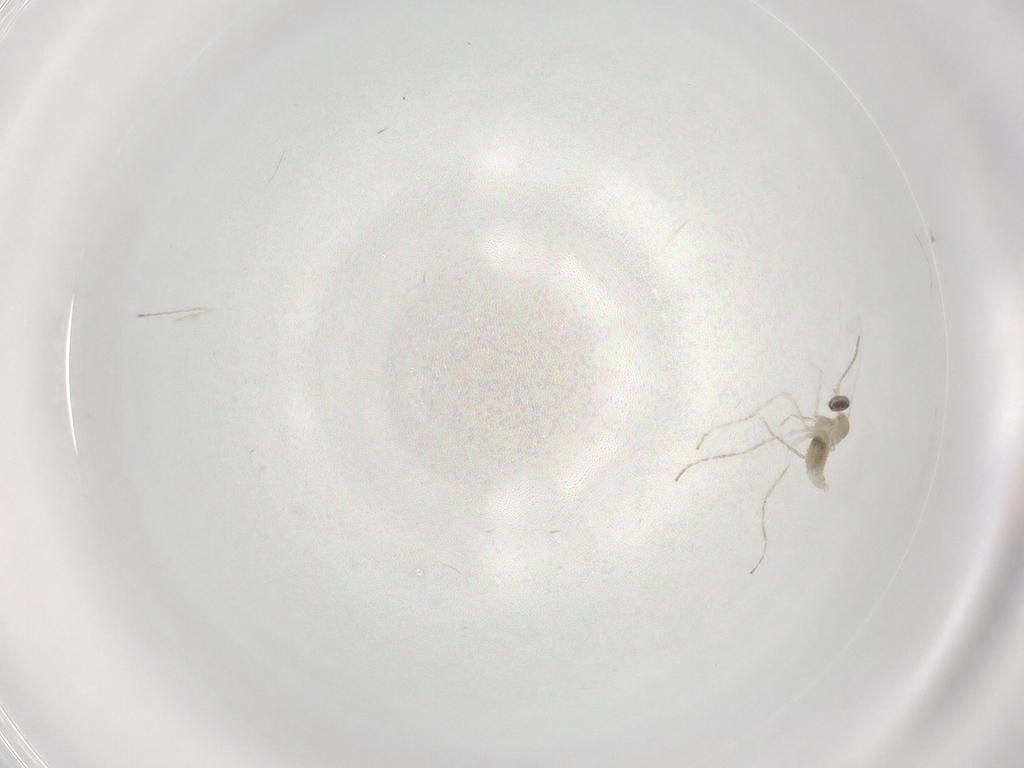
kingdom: Animalia
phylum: Arthropoda
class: Insecta
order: Diptera
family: Cecidomyiidae
